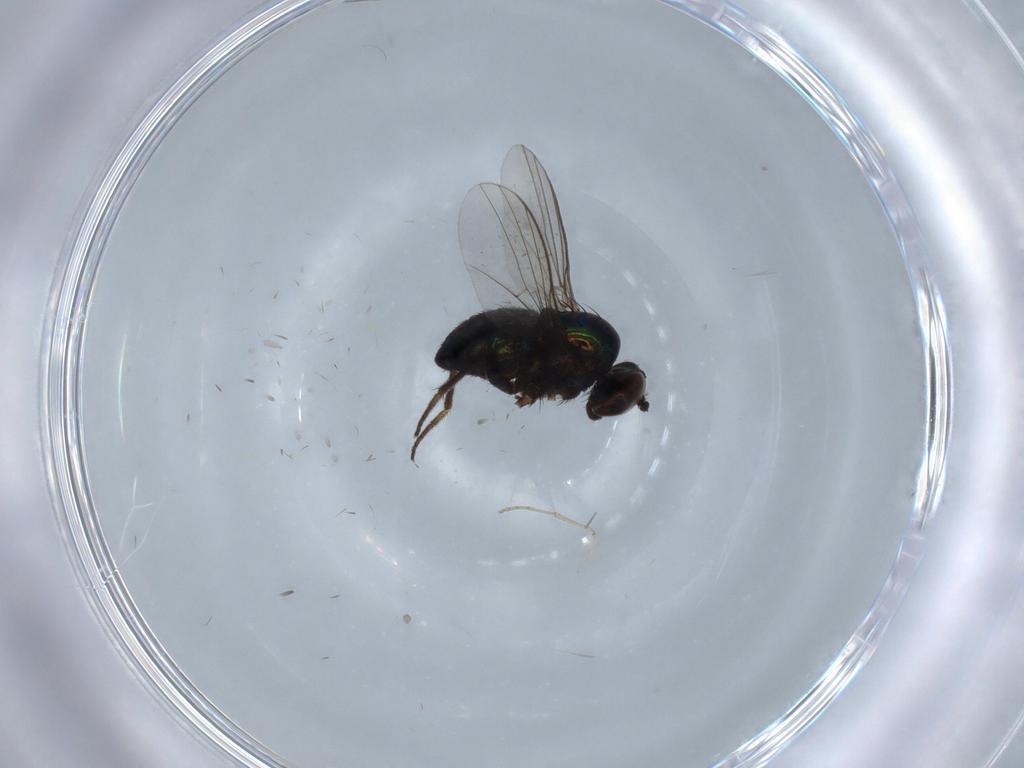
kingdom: Animalia
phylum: Arthropoda
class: Insecta
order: Diptera
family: Dolichopodidae
